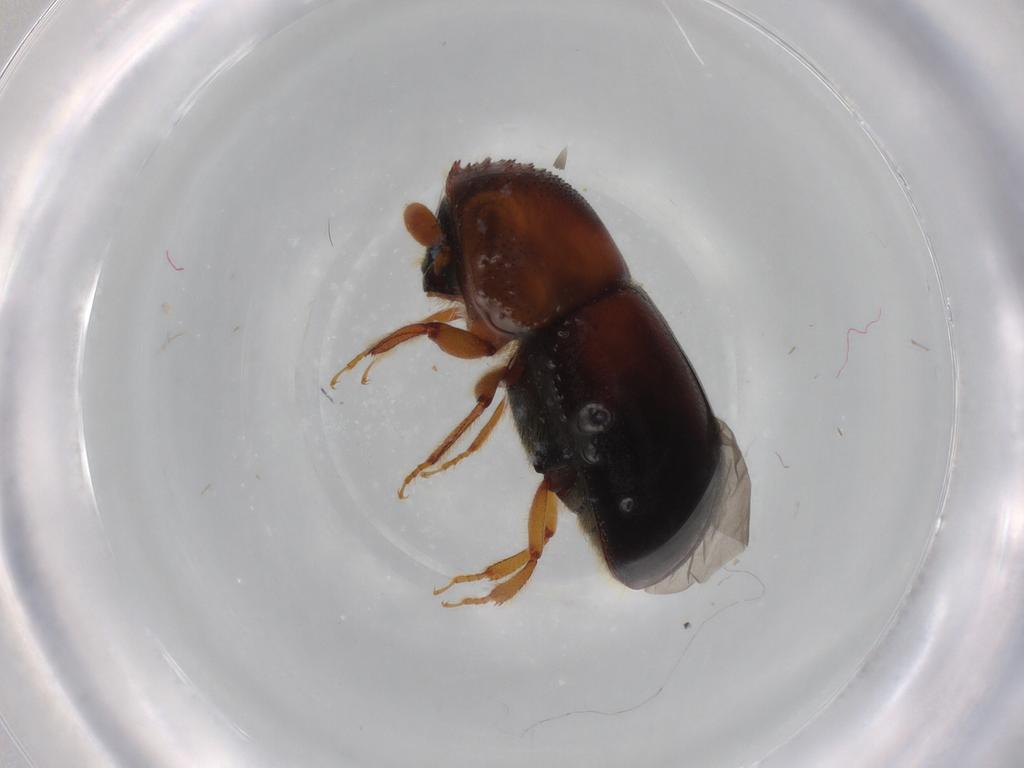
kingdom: Animalia
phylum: Arthropoda
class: Insecta
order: Coleoptera
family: Curculionidae
